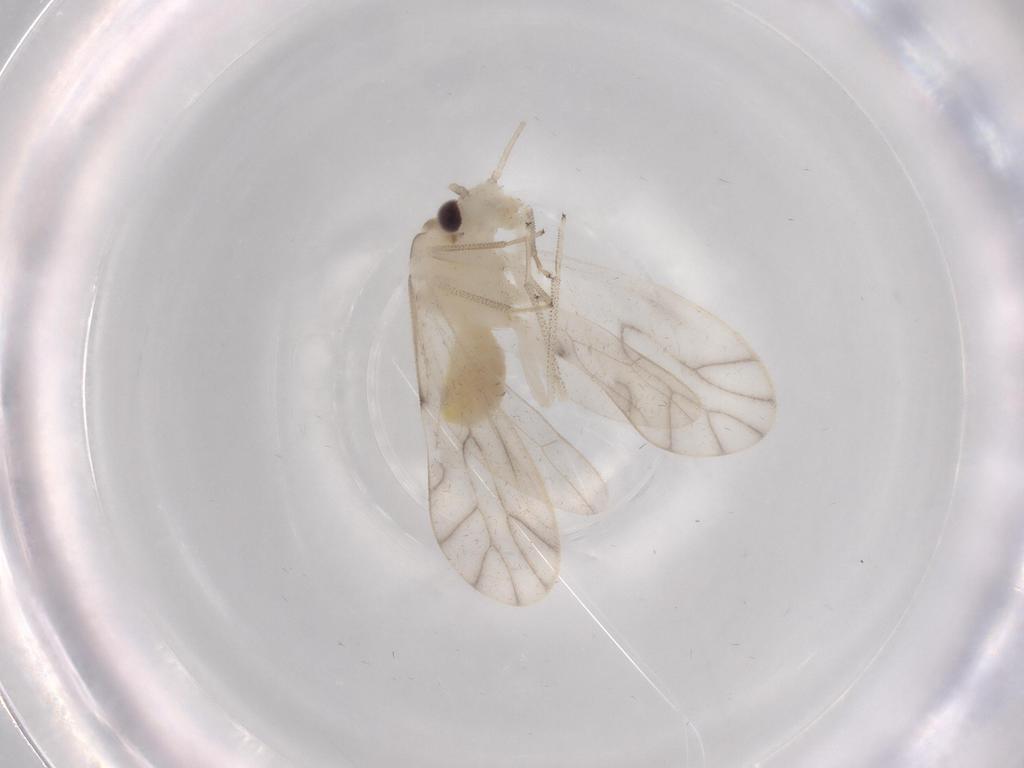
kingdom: Animalia
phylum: Arthropoda
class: Insecta
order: Psocodea
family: Caeciliusidae
